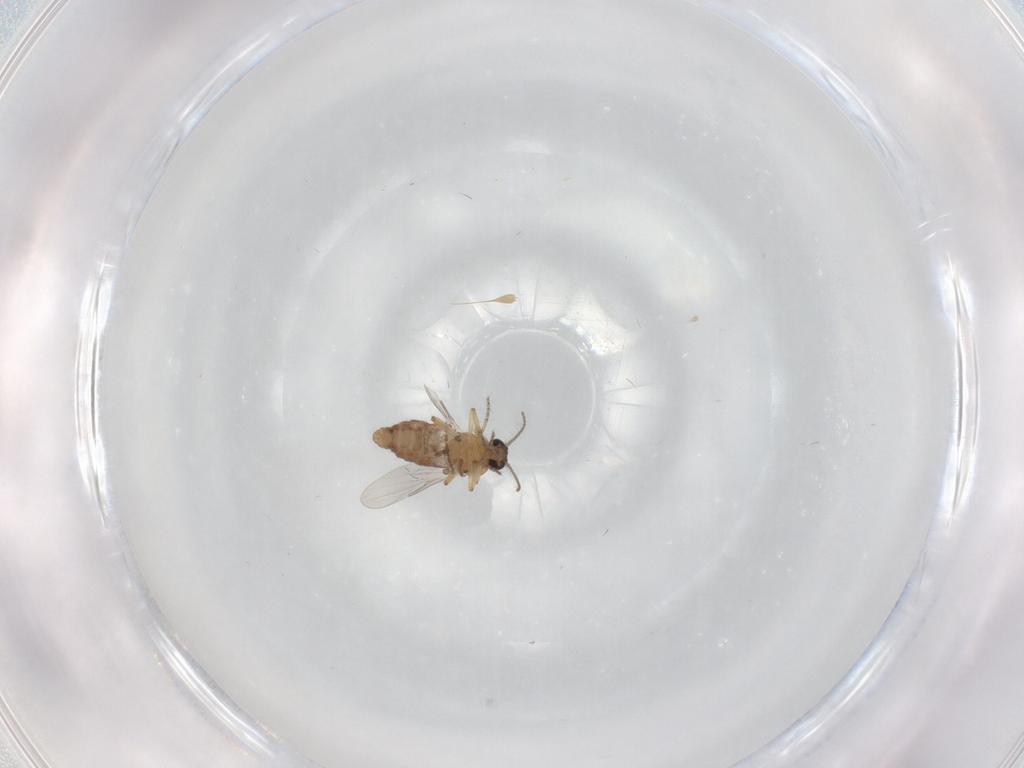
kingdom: Animalia
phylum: Arthropoda
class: Insecta
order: Diptera
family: Ceratopogonidae
